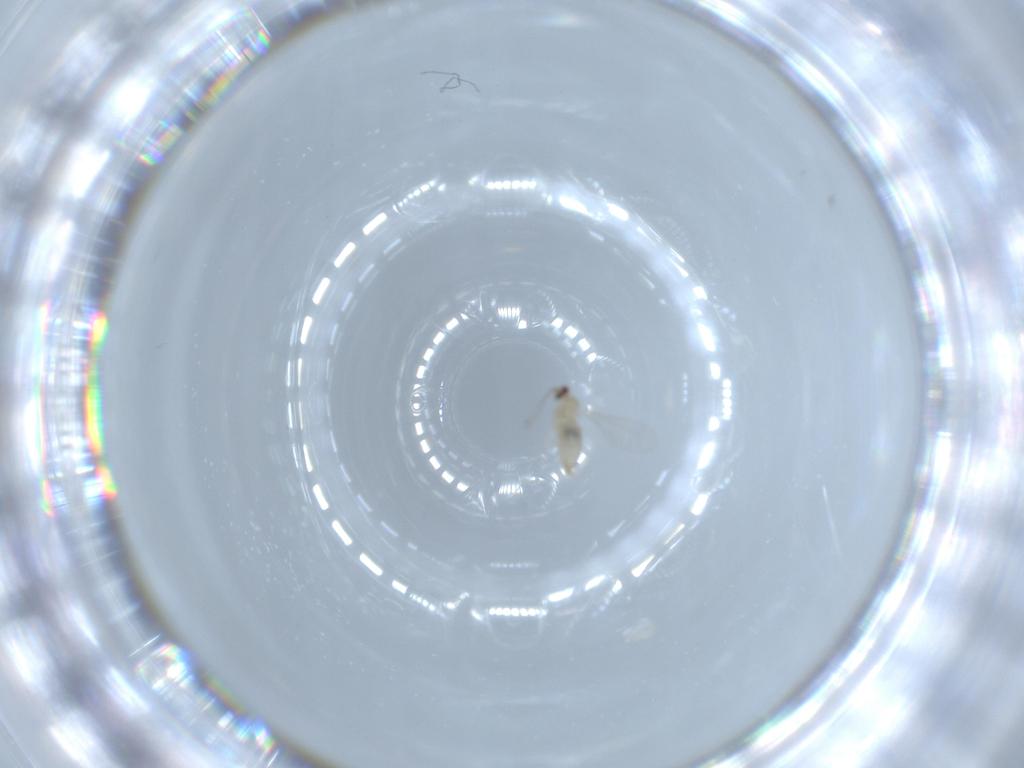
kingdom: Animalia
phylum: Arthropoda
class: Insecta
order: Diptera
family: Cecidomyiidae
